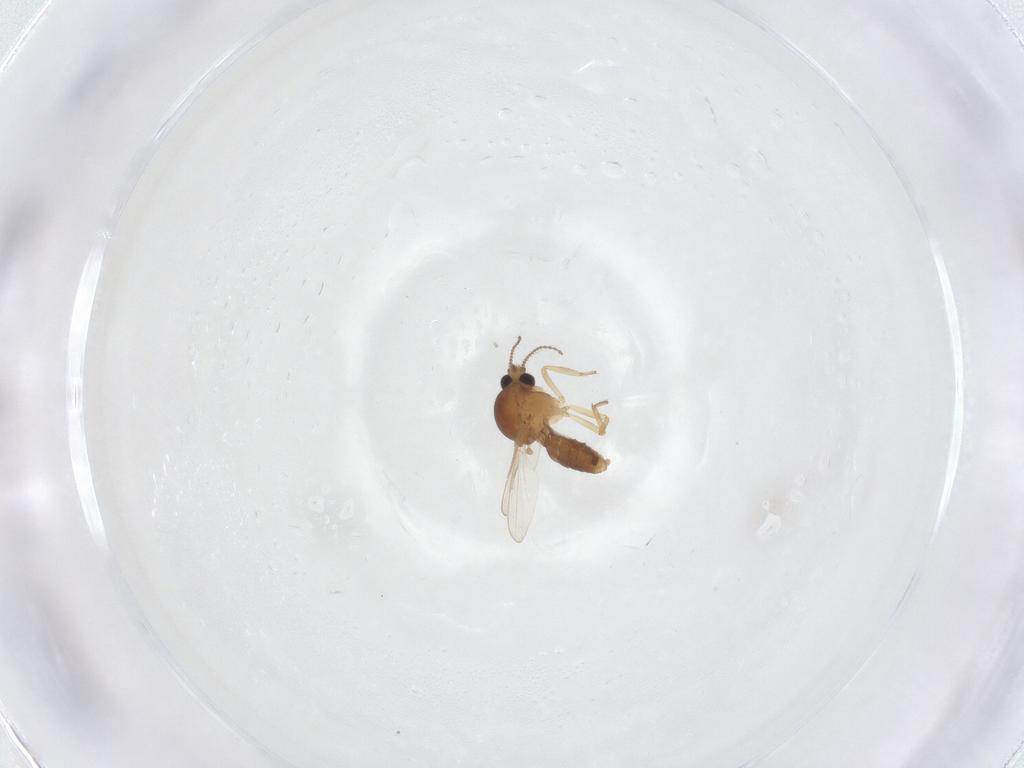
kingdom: Animalia
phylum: Arthropoda
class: Insecta
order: Diptera
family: Ceratopogonidae
